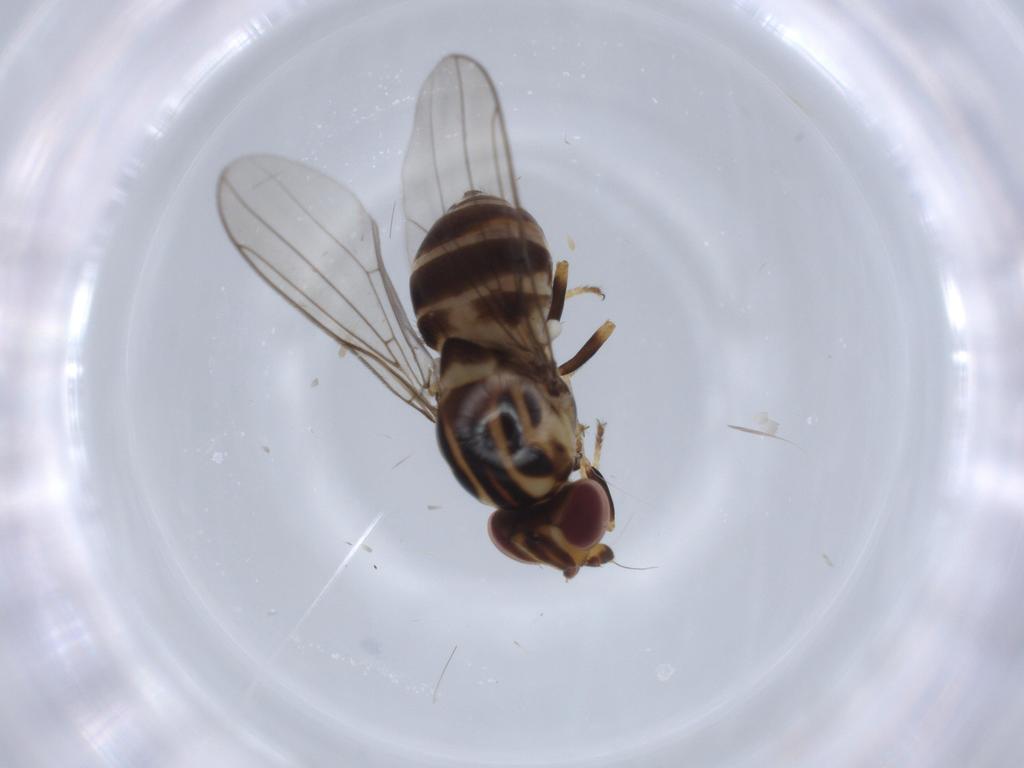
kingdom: Animalia
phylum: Arthropoda
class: Insecta
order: Diptera
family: Chloropidae
